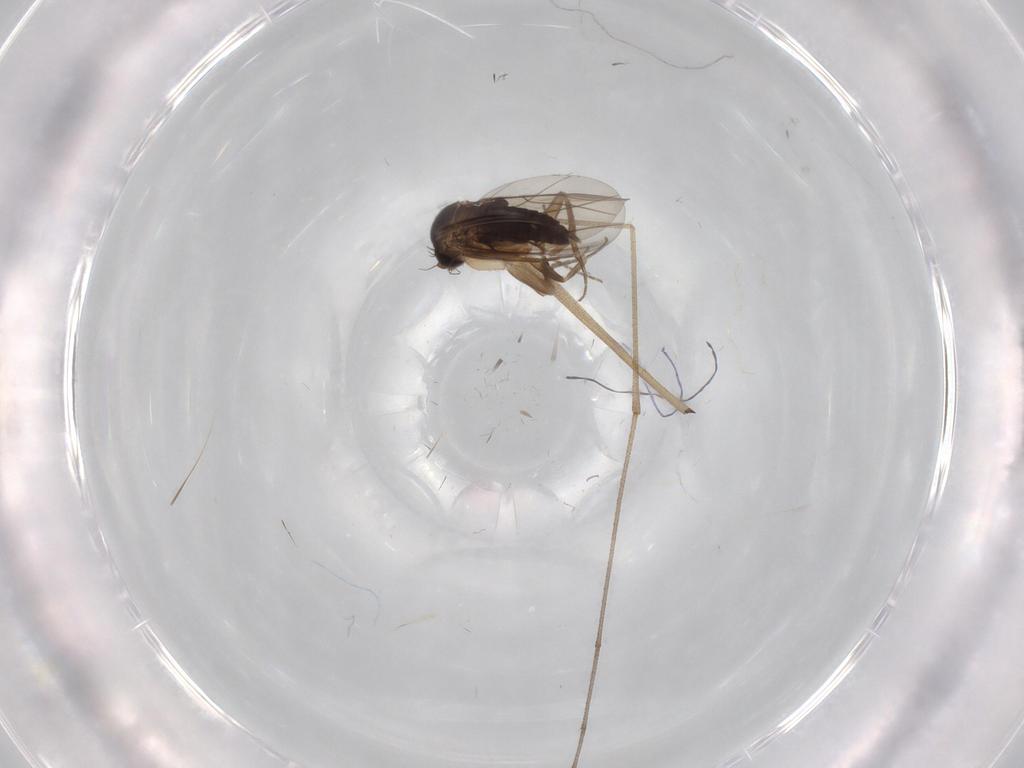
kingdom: Animalia
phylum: Arthropoda
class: Insecta
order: Diptera
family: Phoridae
